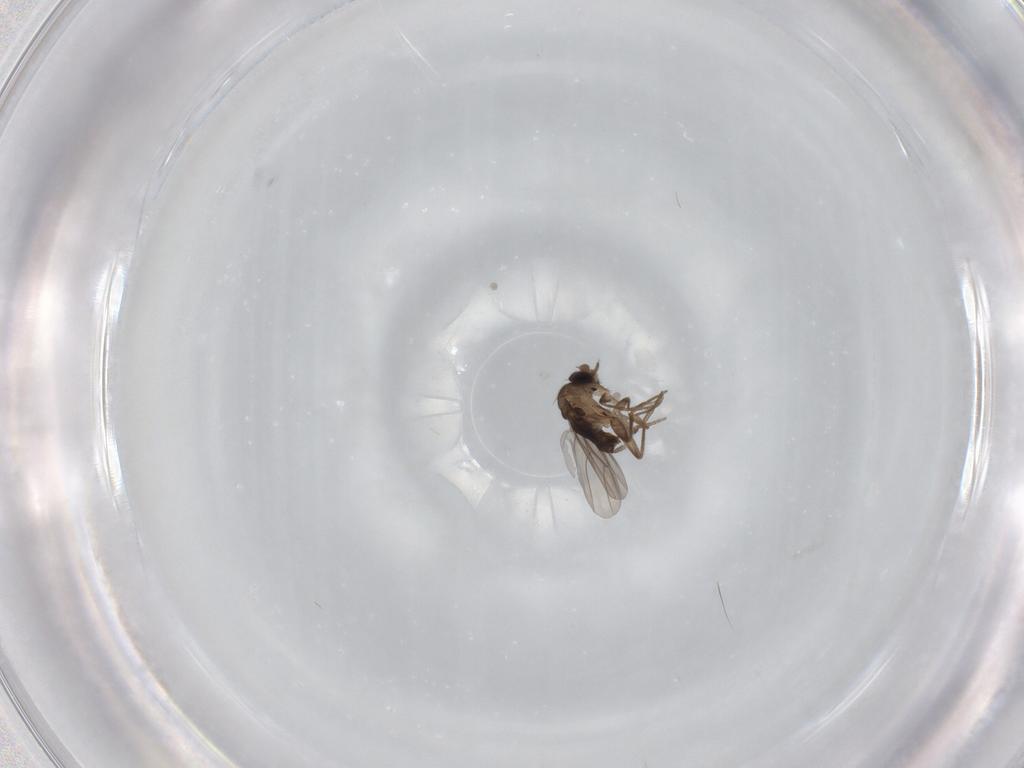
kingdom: Animalia
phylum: Arthropoda
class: Insecta
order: Diptera
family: Phoridae
